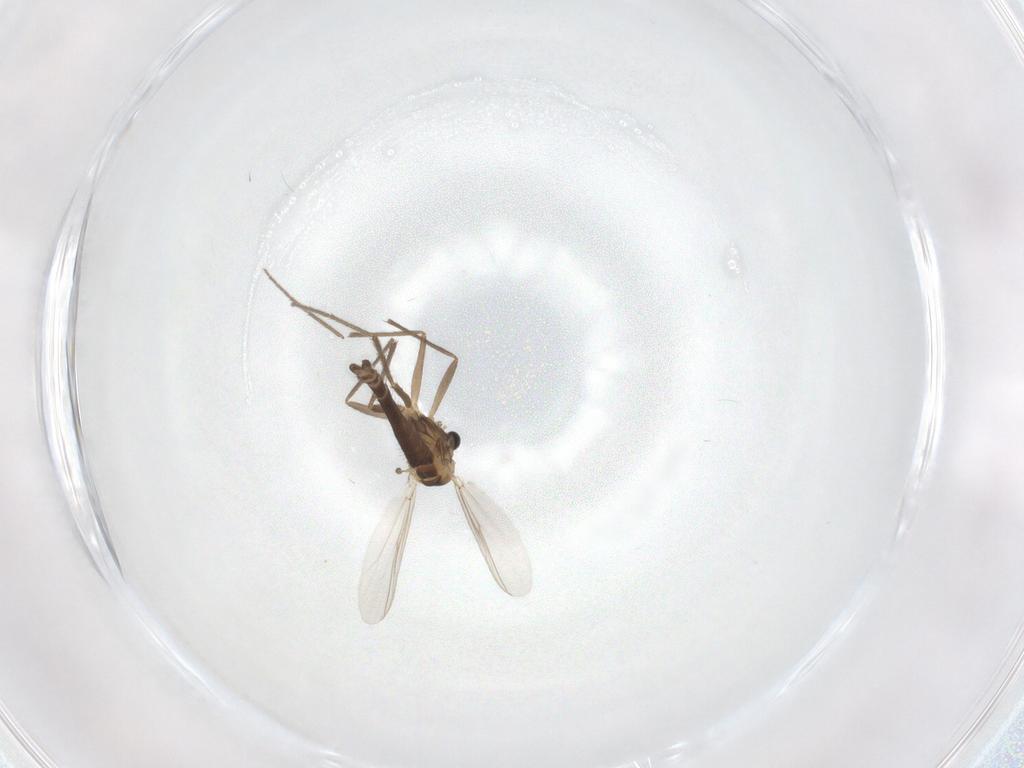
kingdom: Animalia
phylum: Arthropoda
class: Insecta
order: Diptera
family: Chironomidae
